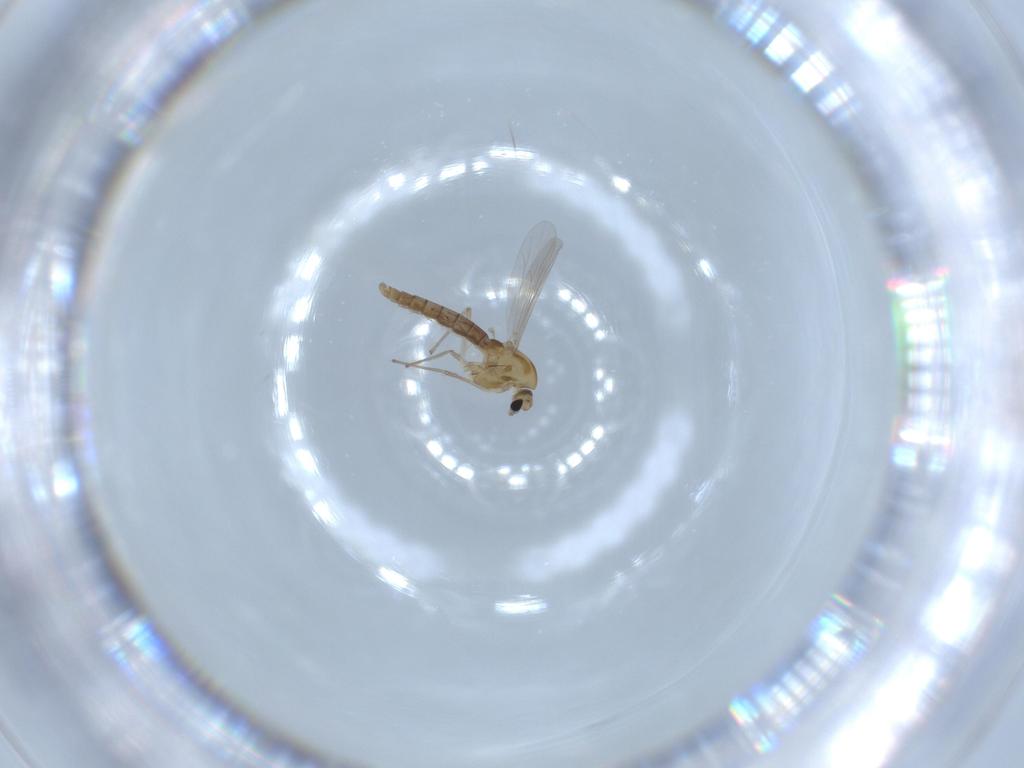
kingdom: Animalia
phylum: Arthropoda
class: Insecta
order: Diptera
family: Chironomidae
